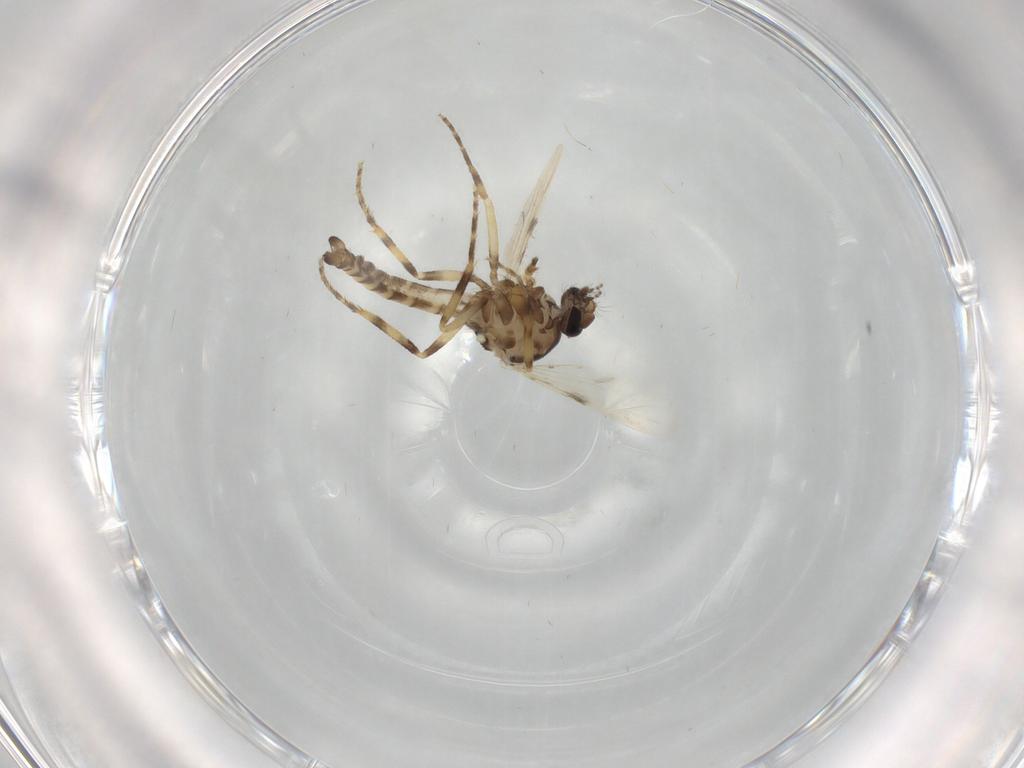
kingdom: Animalia
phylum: Arthropoda
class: Insecta
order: Diptera
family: Ceratopogonidae
